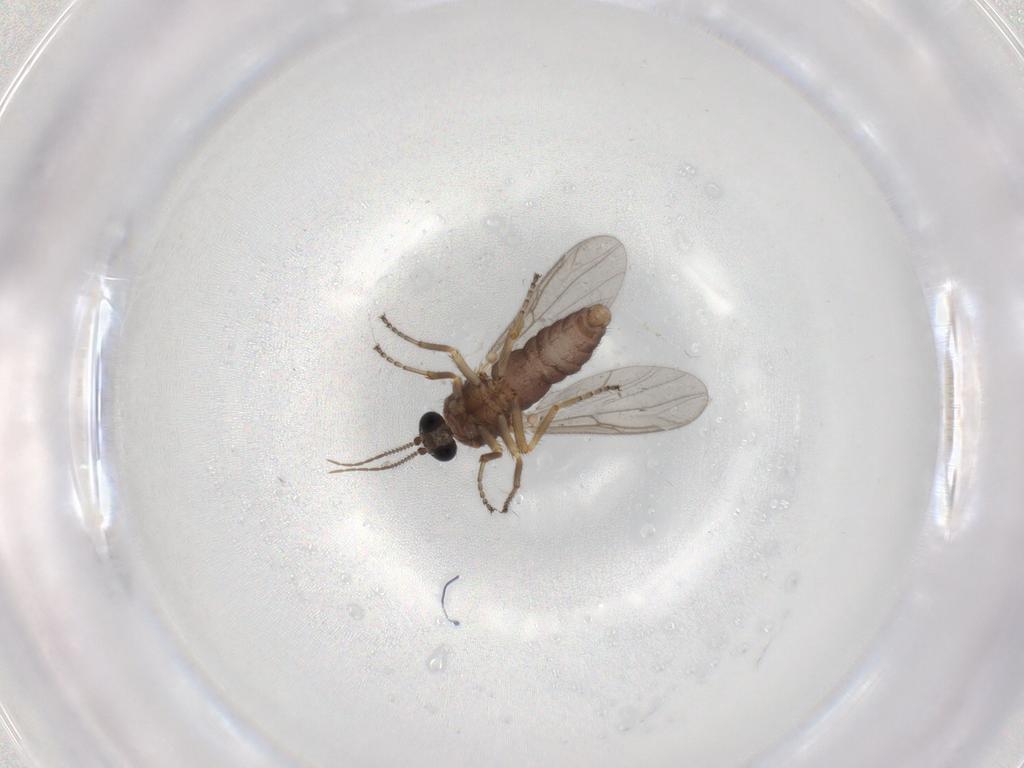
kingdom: Animalia
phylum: Arthropoda
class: Insecta
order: Diptera
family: Ceratopogonidae
